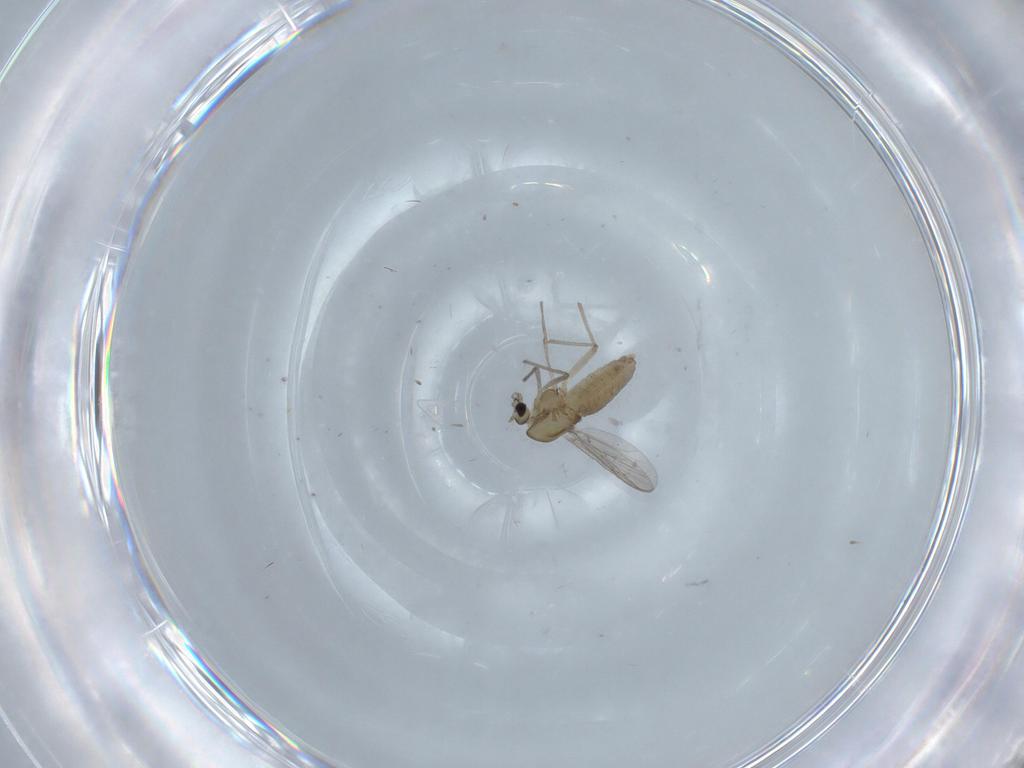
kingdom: Animalia
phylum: Arthropoda
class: Insecta
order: Diptera
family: Chironomidae
